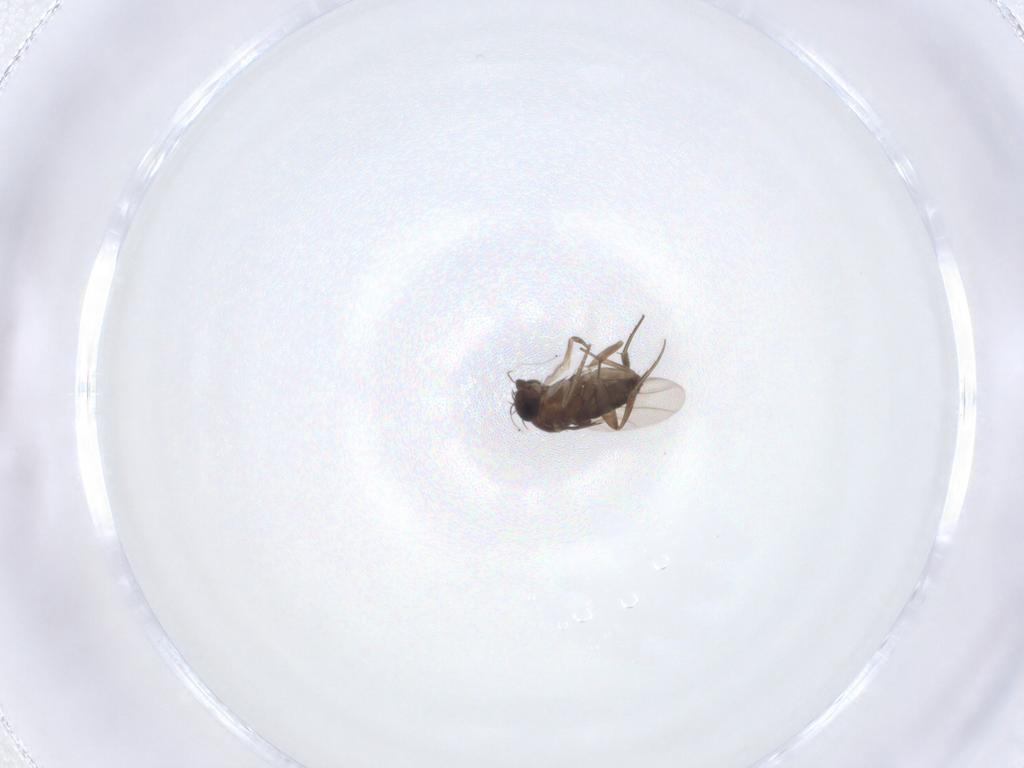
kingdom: Animalia
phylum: Arthropoda
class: Insecta
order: Diptera
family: Phoridae
